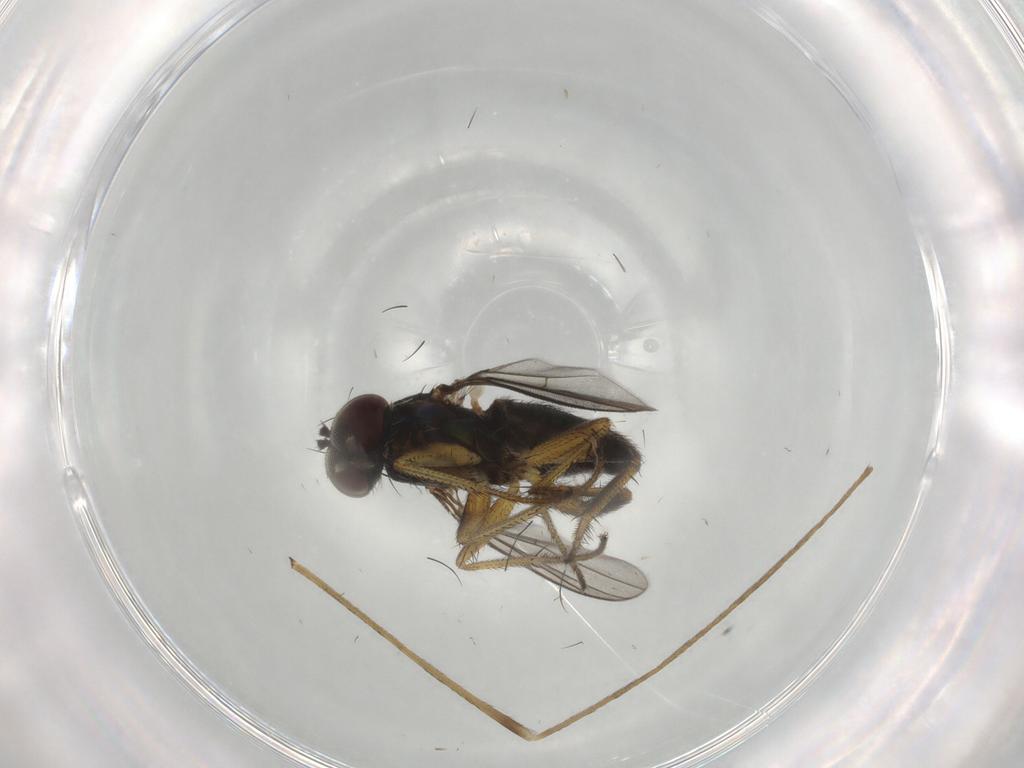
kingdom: Animalia
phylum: Arthropoda
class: Insecta
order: Diptera
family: Dolichopodidae
